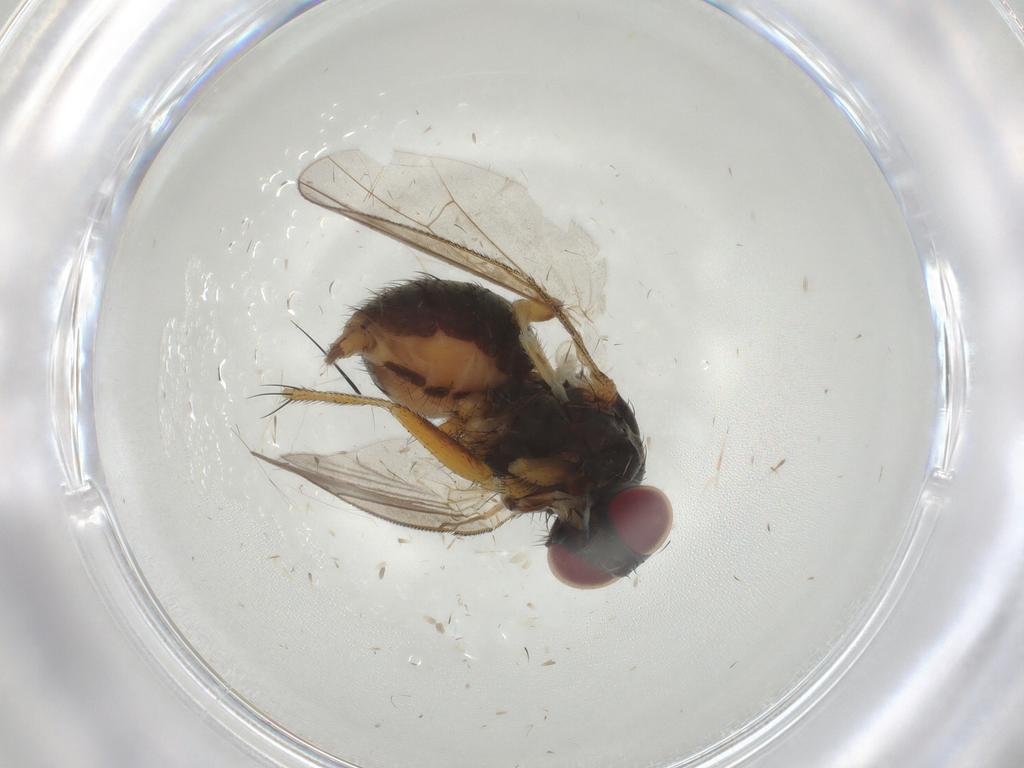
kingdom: Animalia
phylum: Arthropoda
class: Insecta
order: Diptera
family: Muscidae
